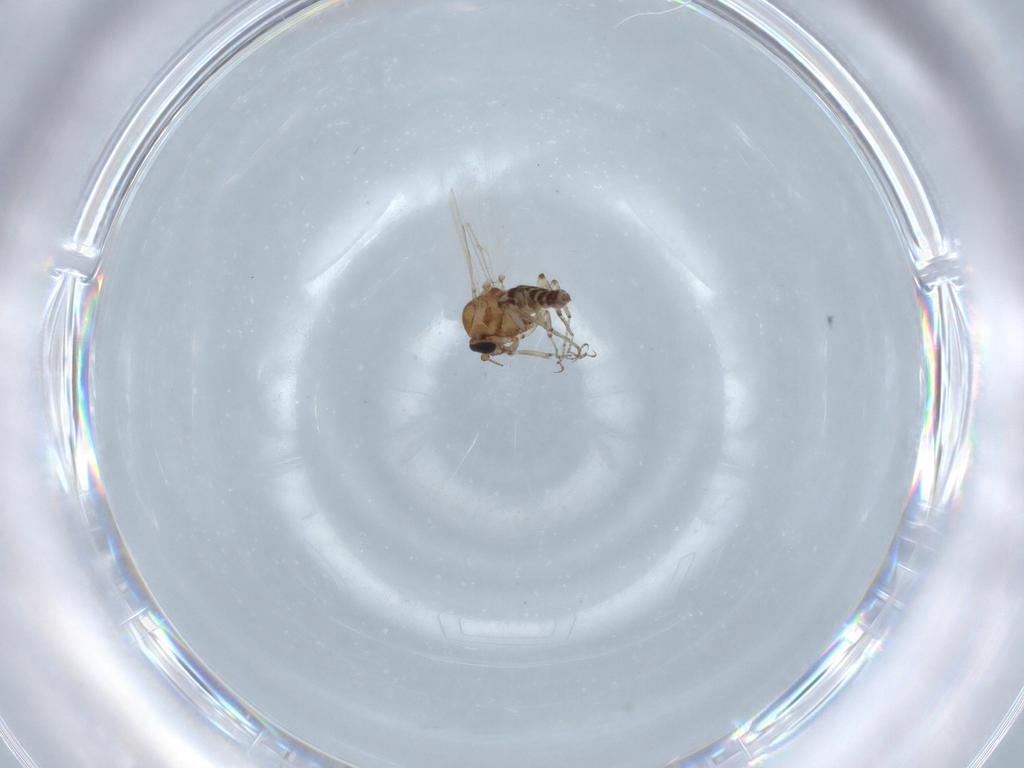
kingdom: Animalia
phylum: Arthropoda
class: Insecta
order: Diptera
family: Ceratopogonidae
